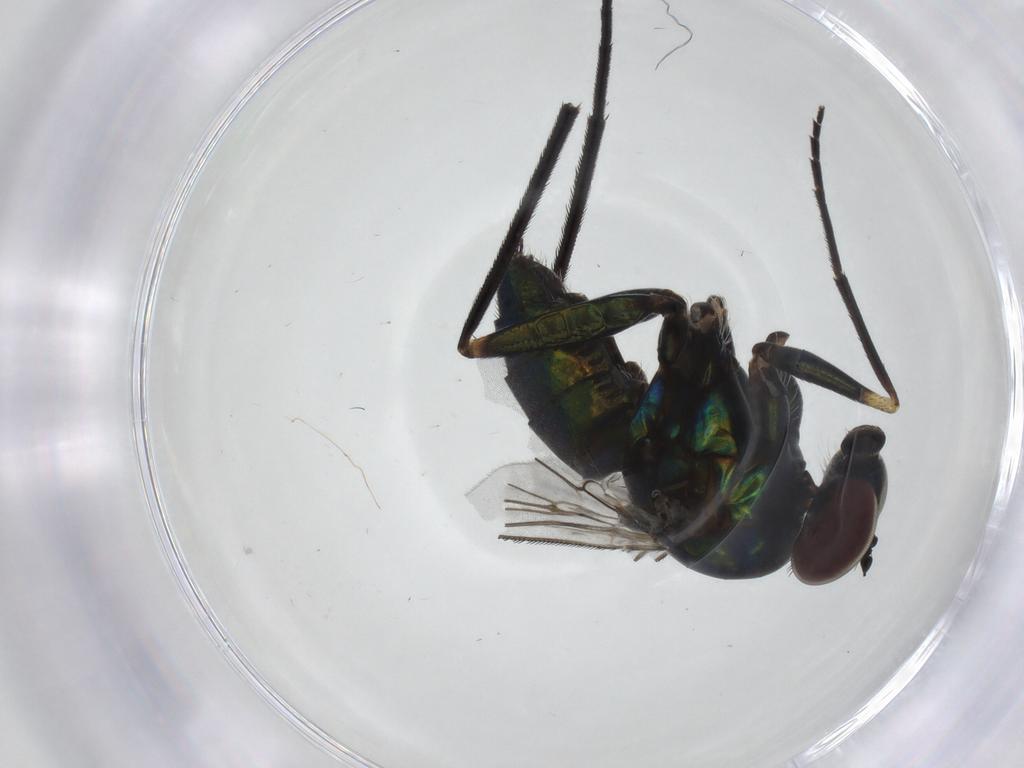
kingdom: Animalia
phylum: Arthropoda
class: Insecta
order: Diptera
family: Dolichopodidae
